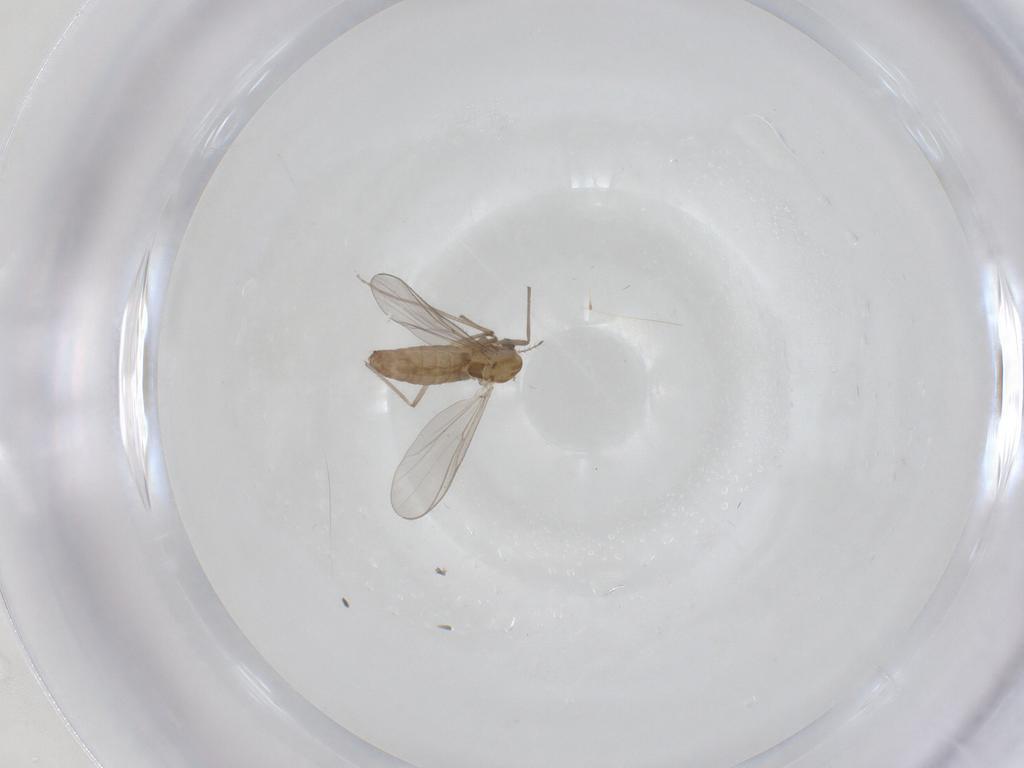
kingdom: Animalia
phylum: Arthropoda
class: Insecta
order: Diptera
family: Chironomidae
